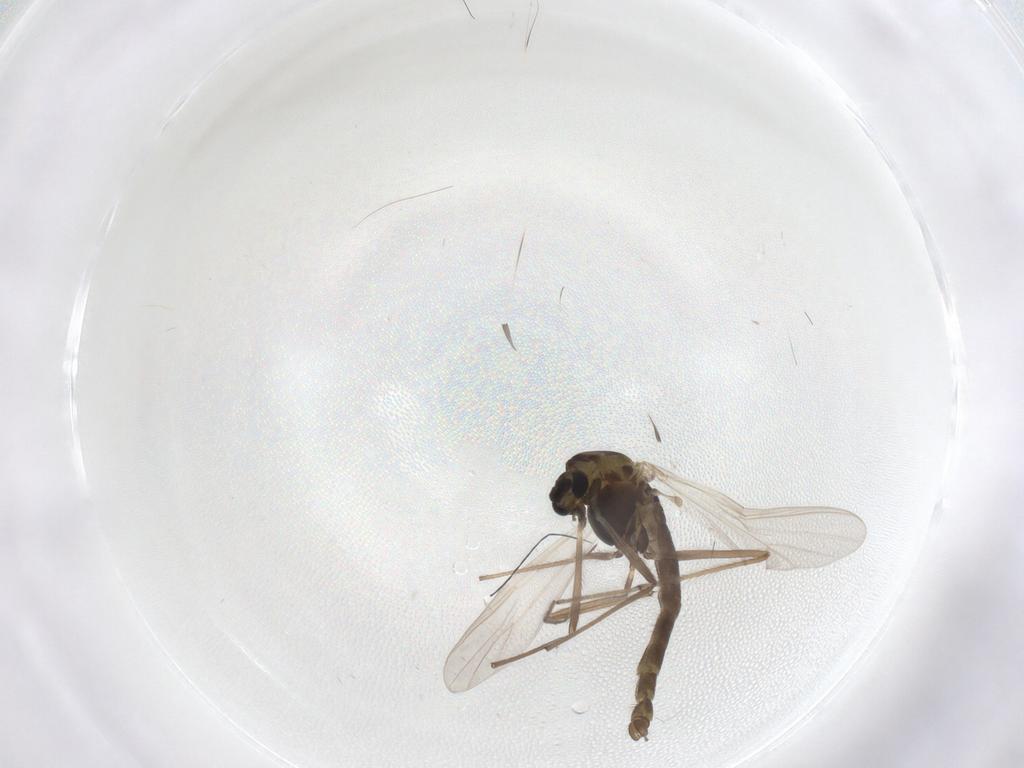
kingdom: Animalia
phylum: Arthropoda
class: Insecta
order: Diptera
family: Chironomidae
